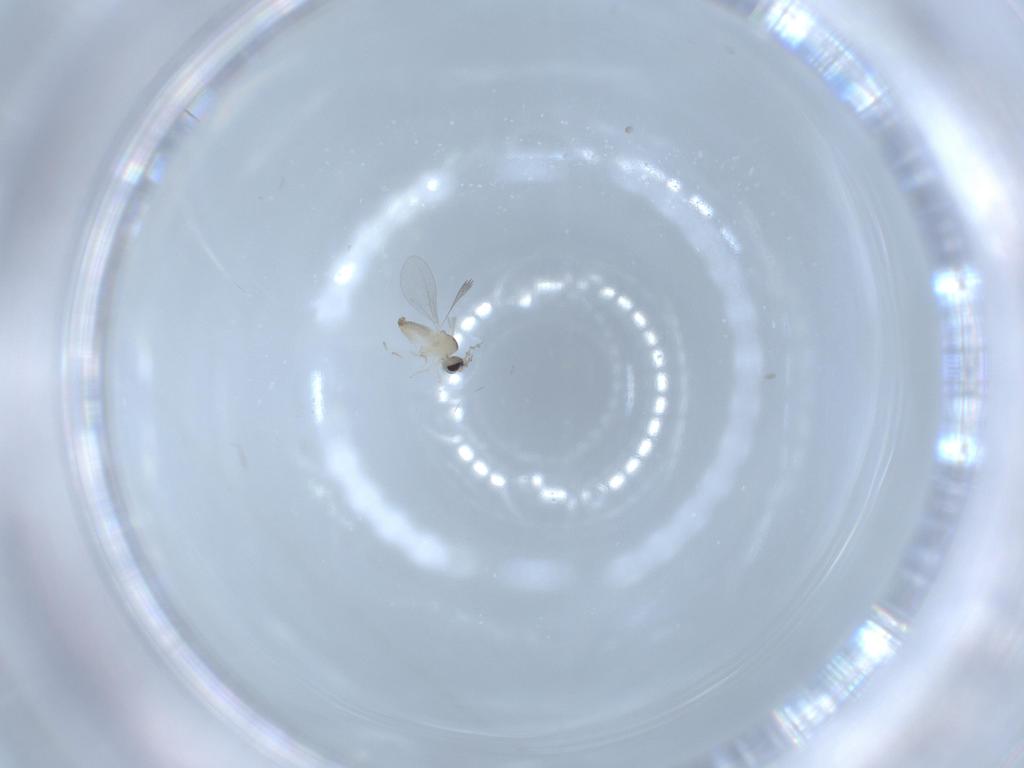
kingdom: Animalia
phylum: Arthropoda
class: Insecta
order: Diptera
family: Cecidomyiidae
